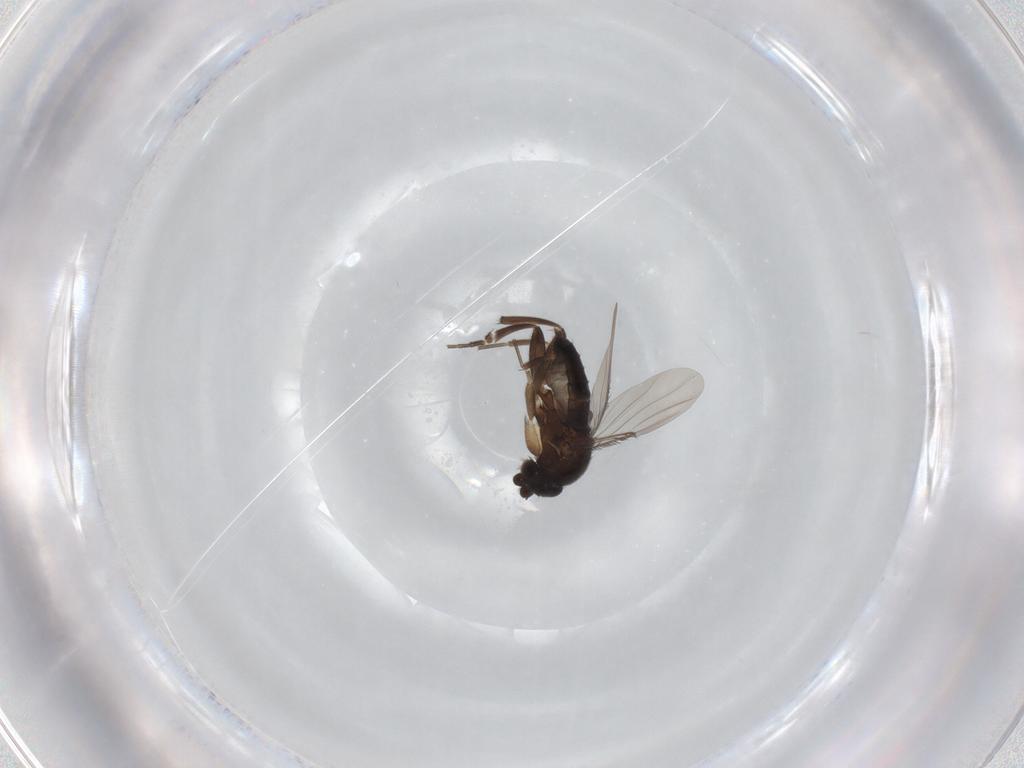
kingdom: Animalia
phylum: Arthropoda
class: Insecta
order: Diptera
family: Phoridae
